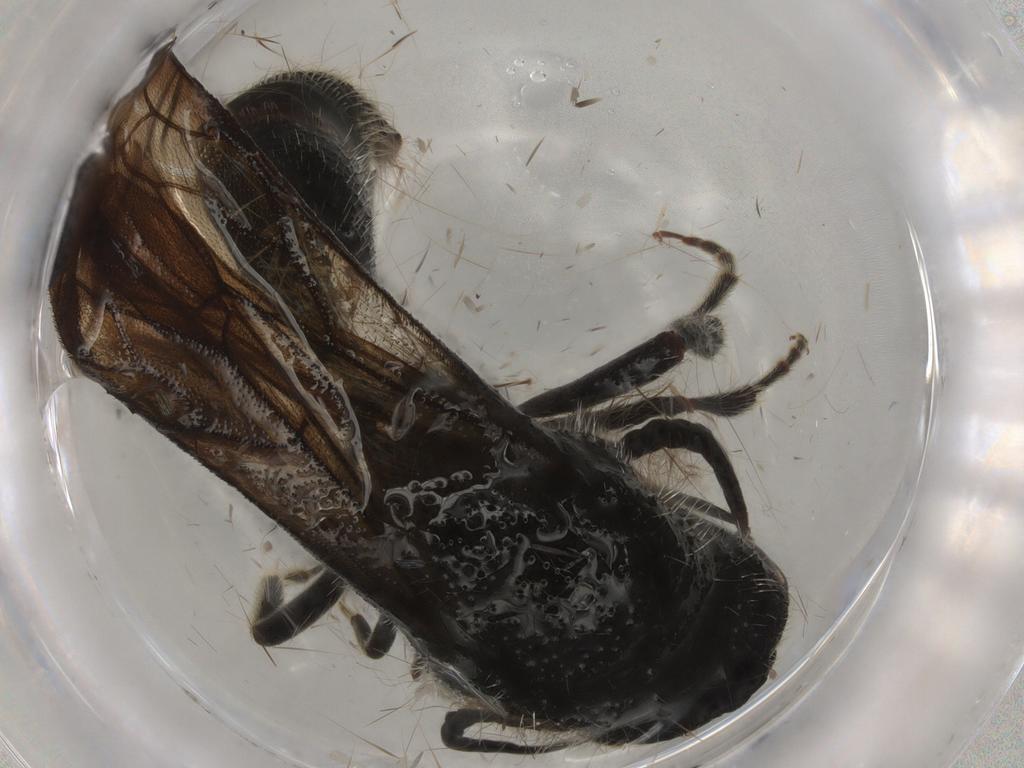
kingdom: Animalia
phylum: Arthropoda
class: Insecta
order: Hymenoptera
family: Mutillidae
